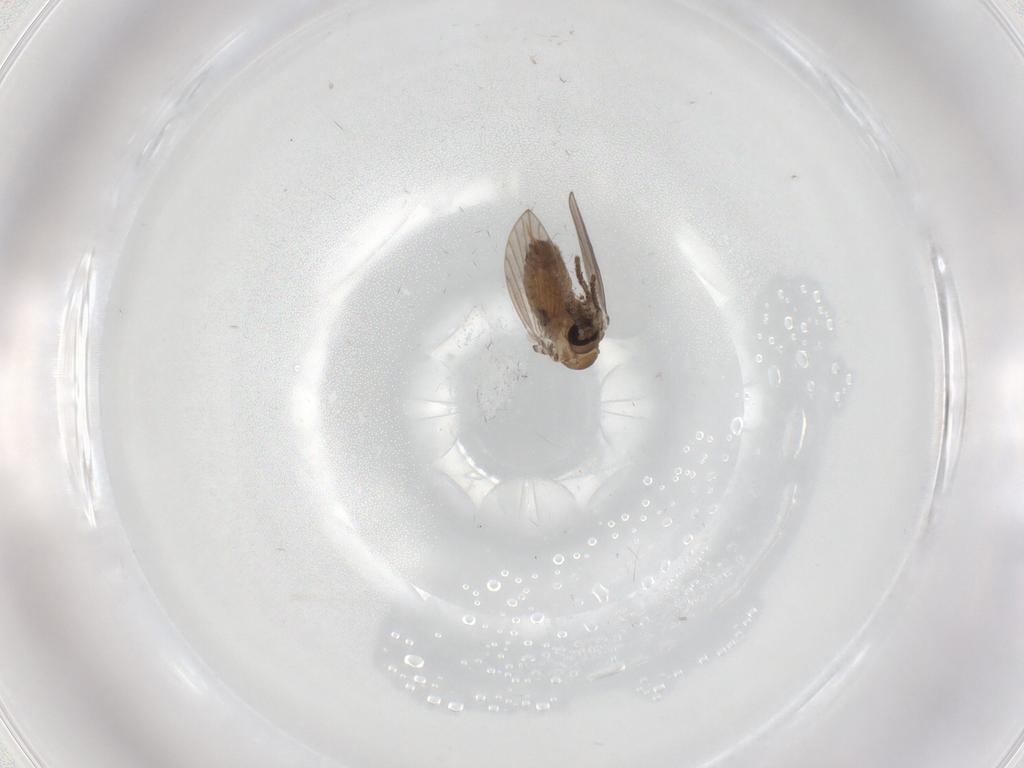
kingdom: Animalia
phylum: Arthropoda
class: Insecta
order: Diptera
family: Psychodidae
